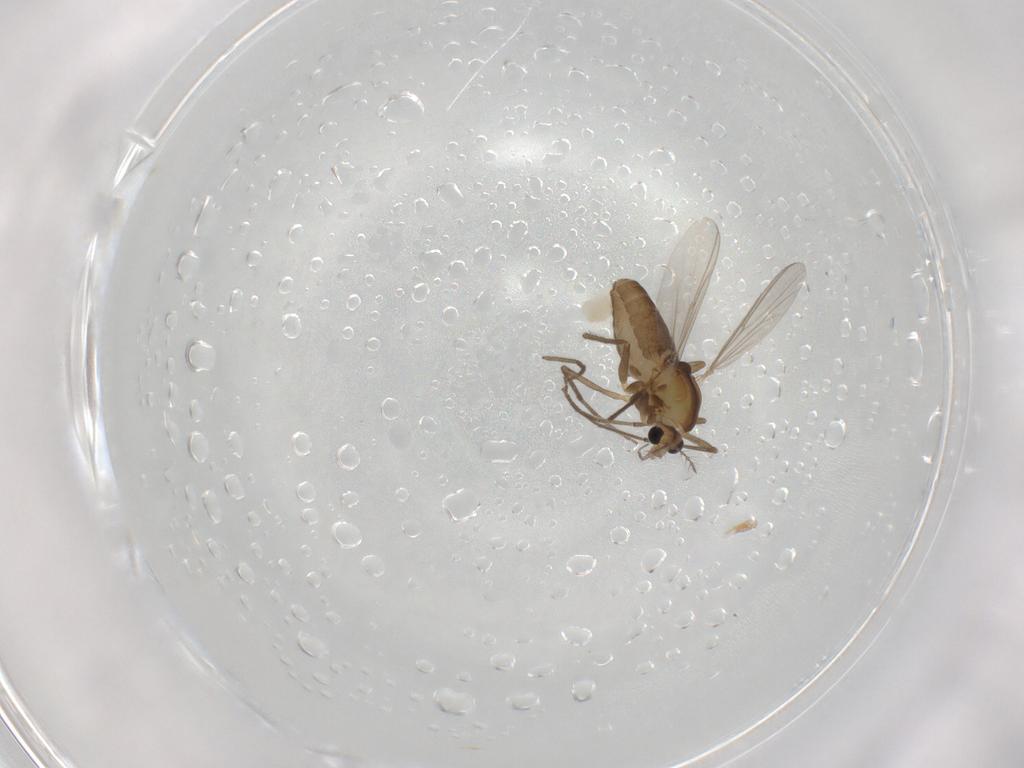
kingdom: Animalia
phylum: Arthropoda
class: Insecta
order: Diptera
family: Chironomidae
